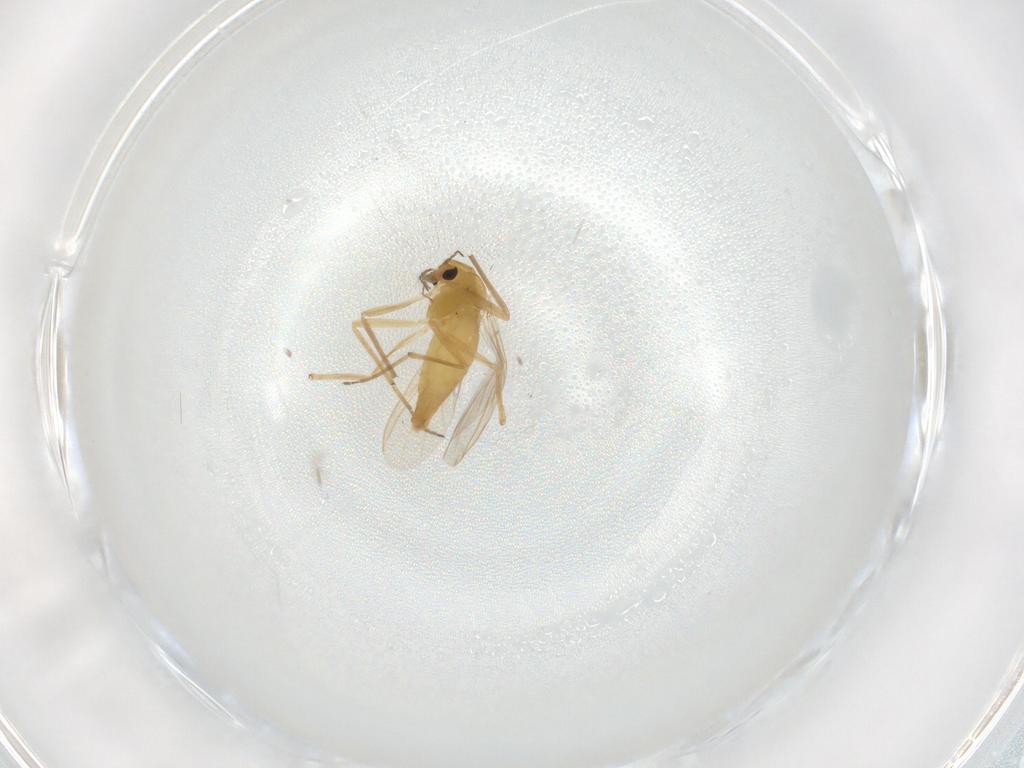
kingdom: Animalia
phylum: Arthropoda
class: Insecta
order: Diptera
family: Chironomidae
